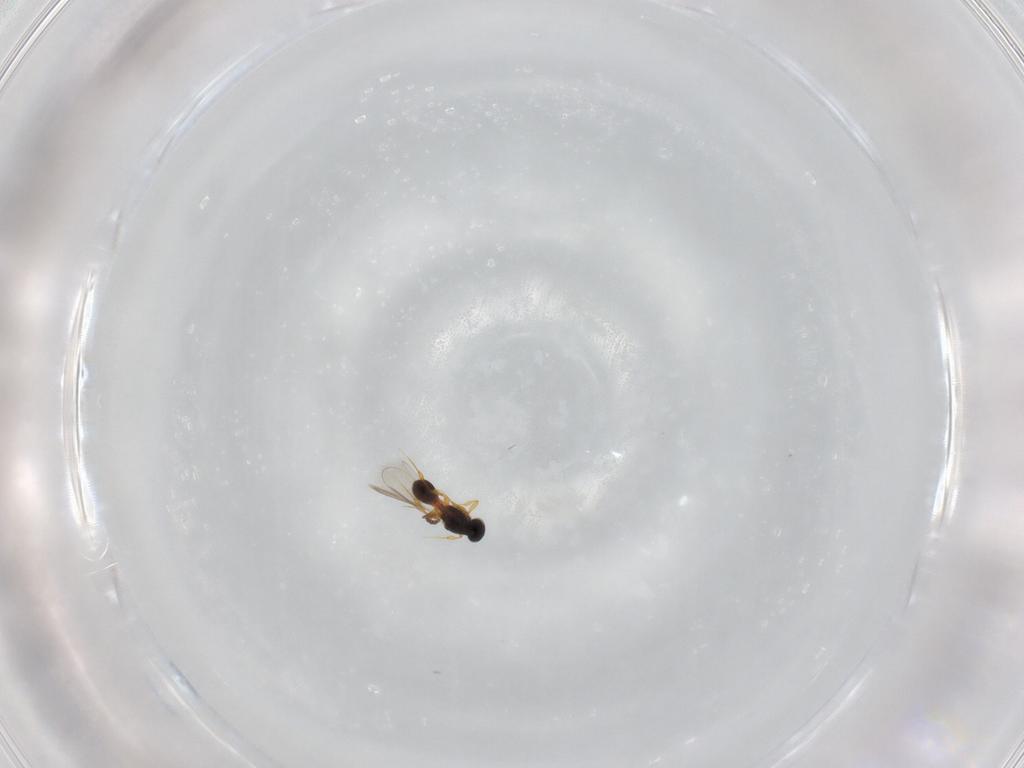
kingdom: Animalia
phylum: Arthropoda
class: Insecta
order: Hymenoptera
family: Platygastridae
